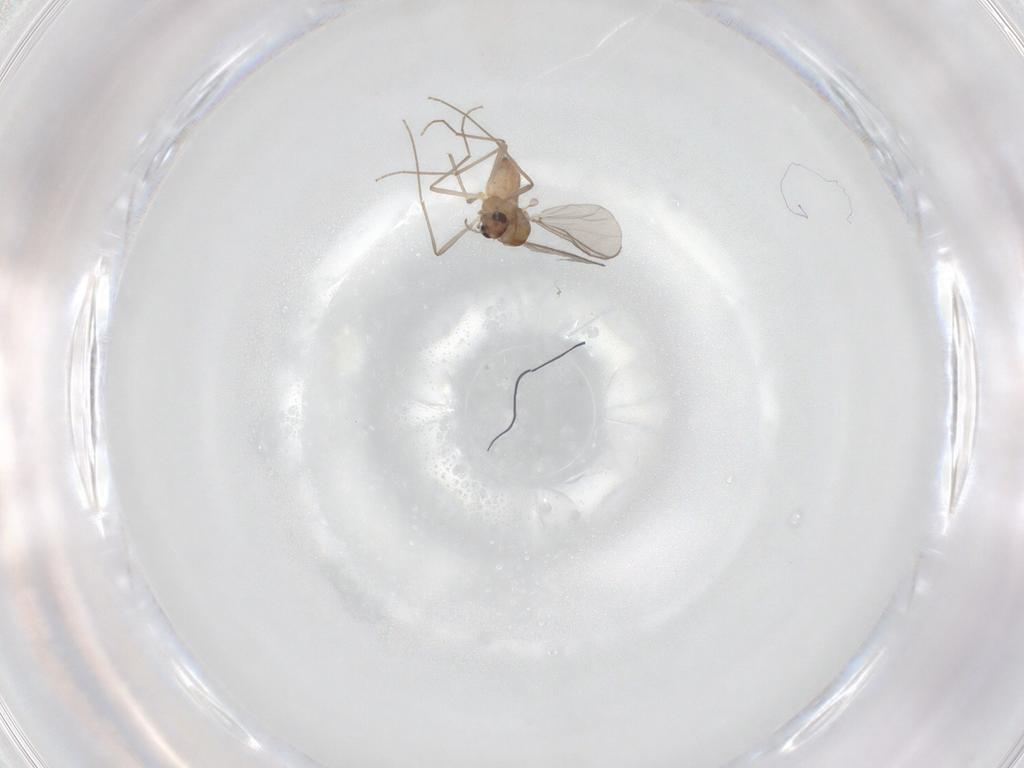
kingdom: Animalia
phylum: Arthropoda
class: Insecta
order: Diptera
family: Chironomidae
